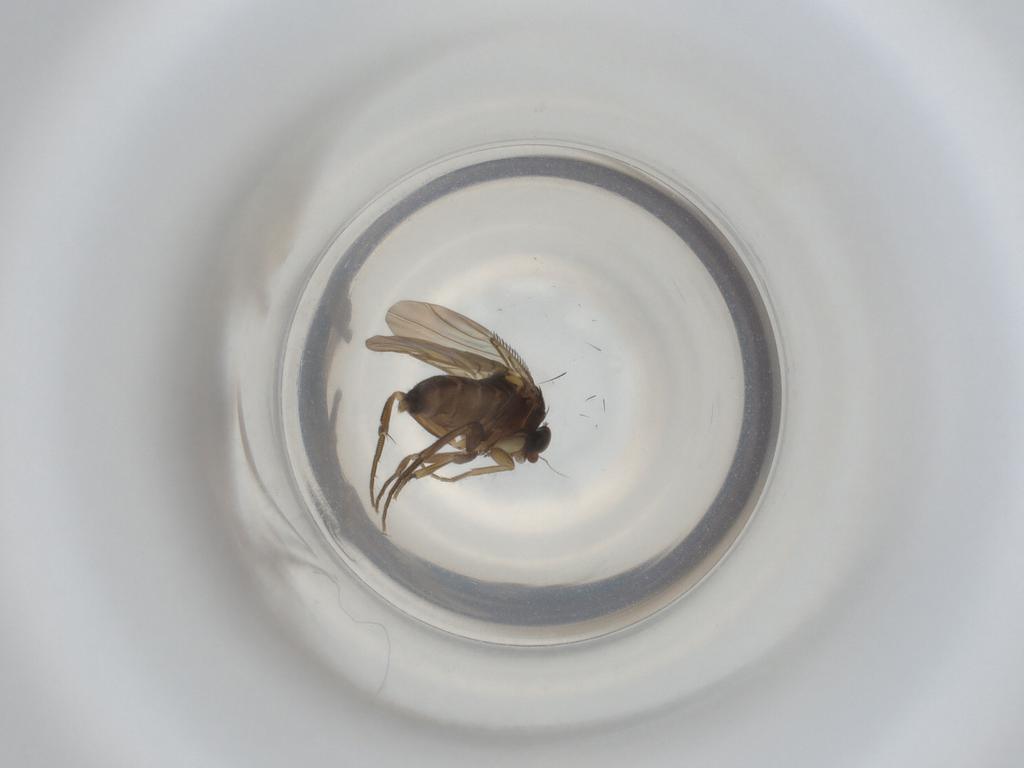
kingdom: Animalia
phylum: Arthropoda
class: Insecta
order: Diptera
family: Phoridae
